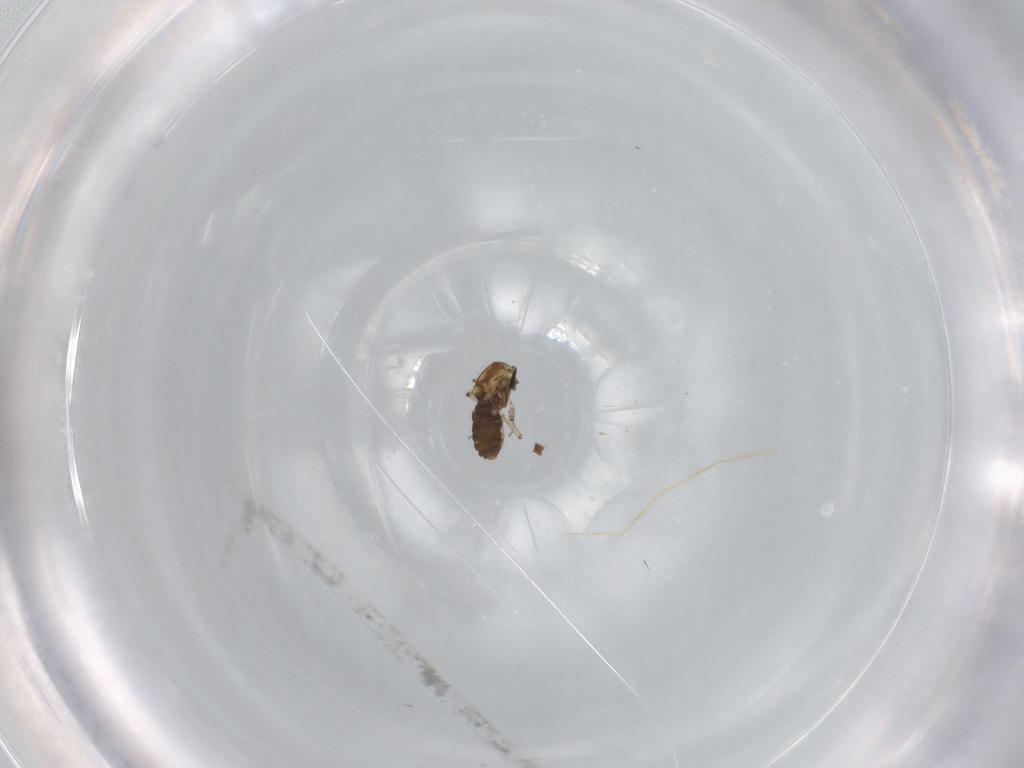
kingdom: Animalia
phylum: Arthropoda
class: Insecta
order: Diptera
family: Ceratopogonidae
